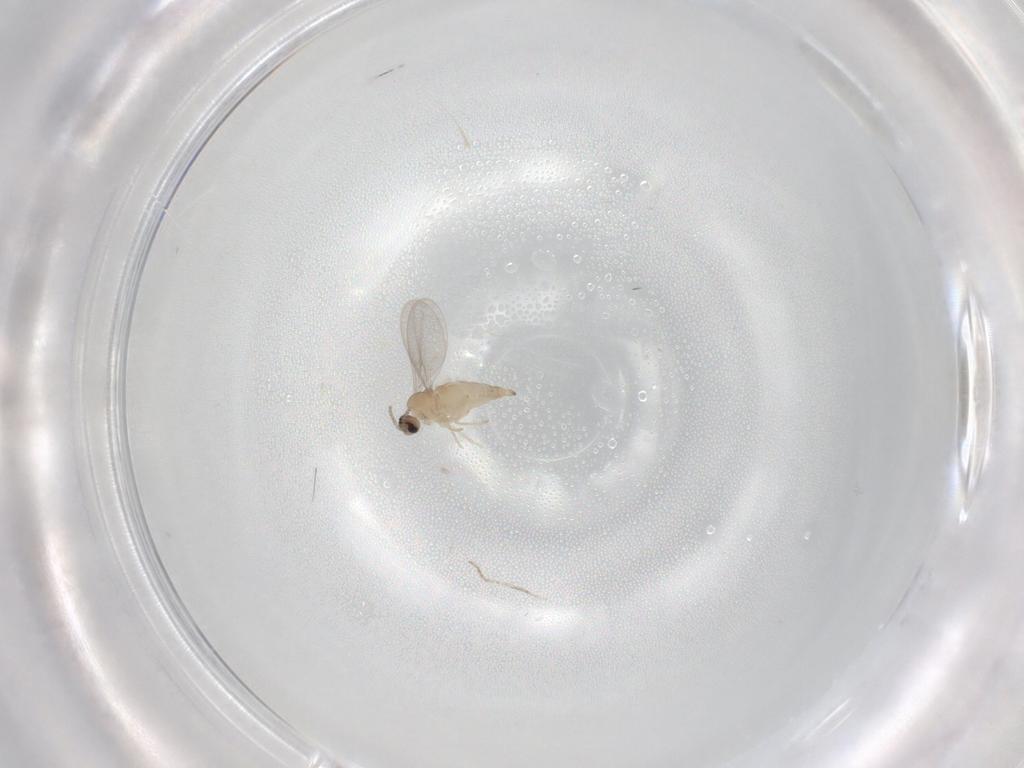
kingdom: Animalia
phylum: Arthropoda
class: Insecta
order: Diptera
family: Cecidomyiidae
